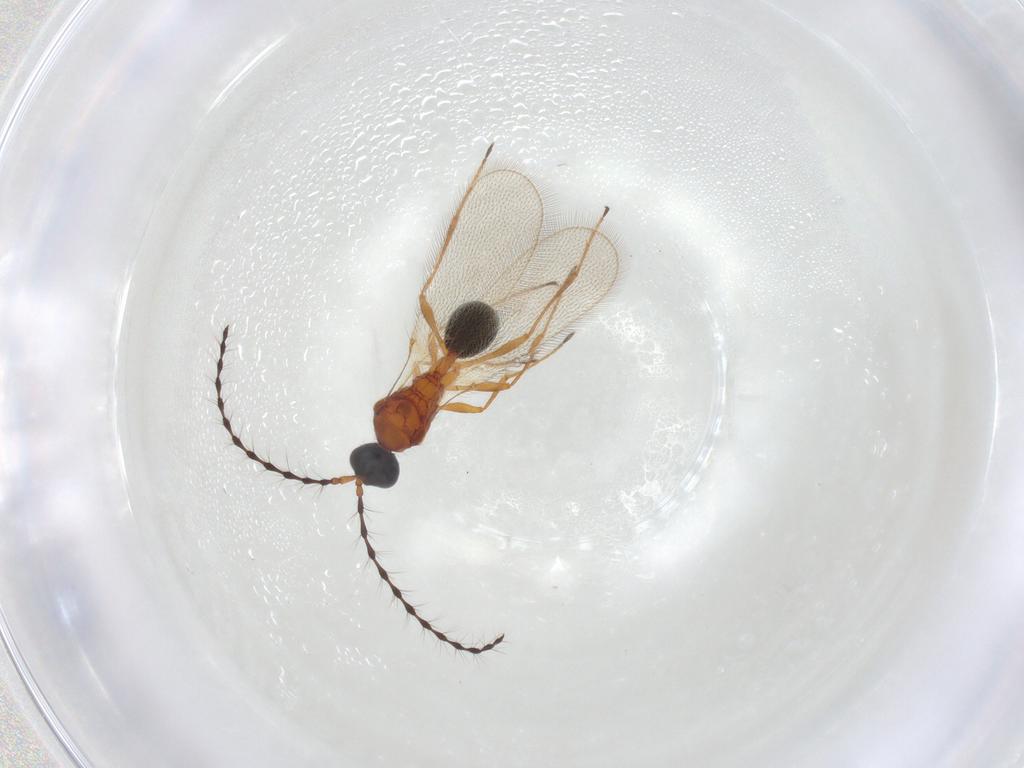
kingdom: Animalia
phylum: Arthropoda
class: Insecta
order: Hymenoptera
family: Diapriidae
